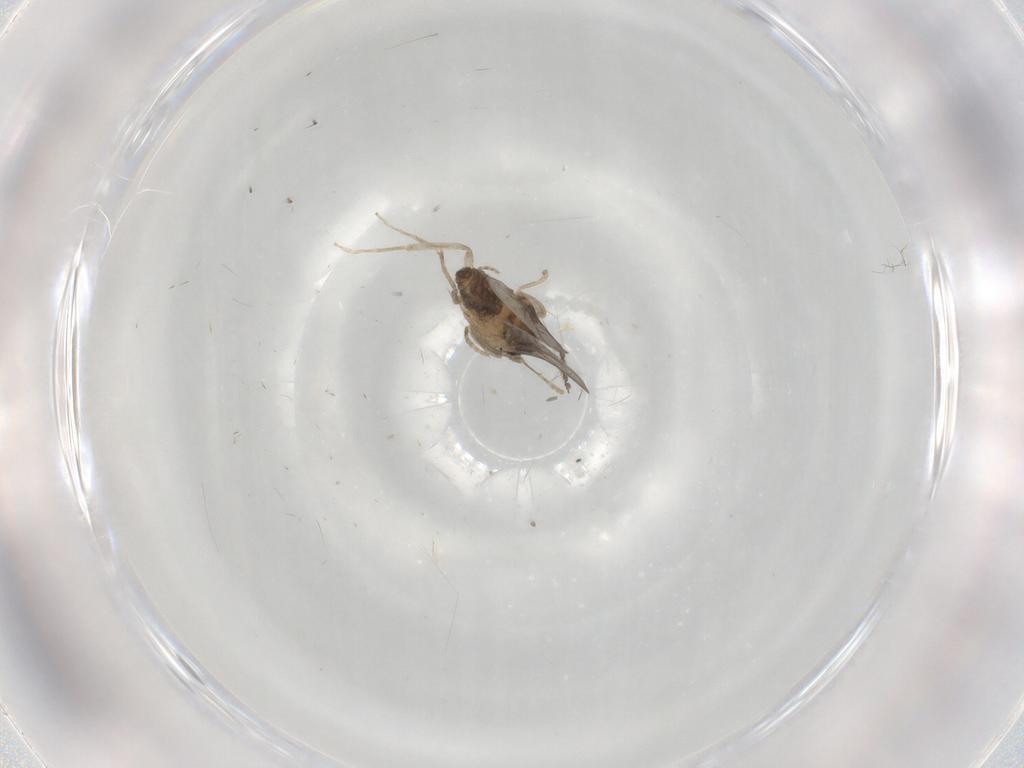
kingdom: Animalia
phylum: Arthropoda
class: Insecta
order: Diptera
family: Cecidomyiidae
